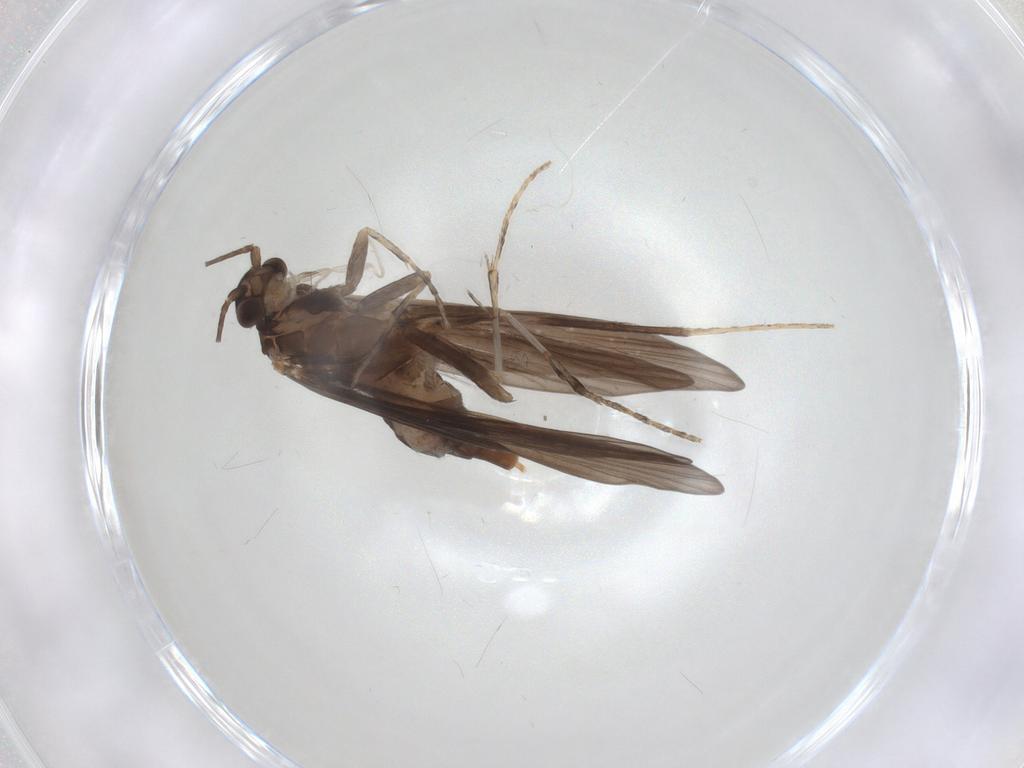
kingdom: Animalia
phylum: Arthropoda
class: Insecta
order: Trichoptera
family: Xiphocentronidae
